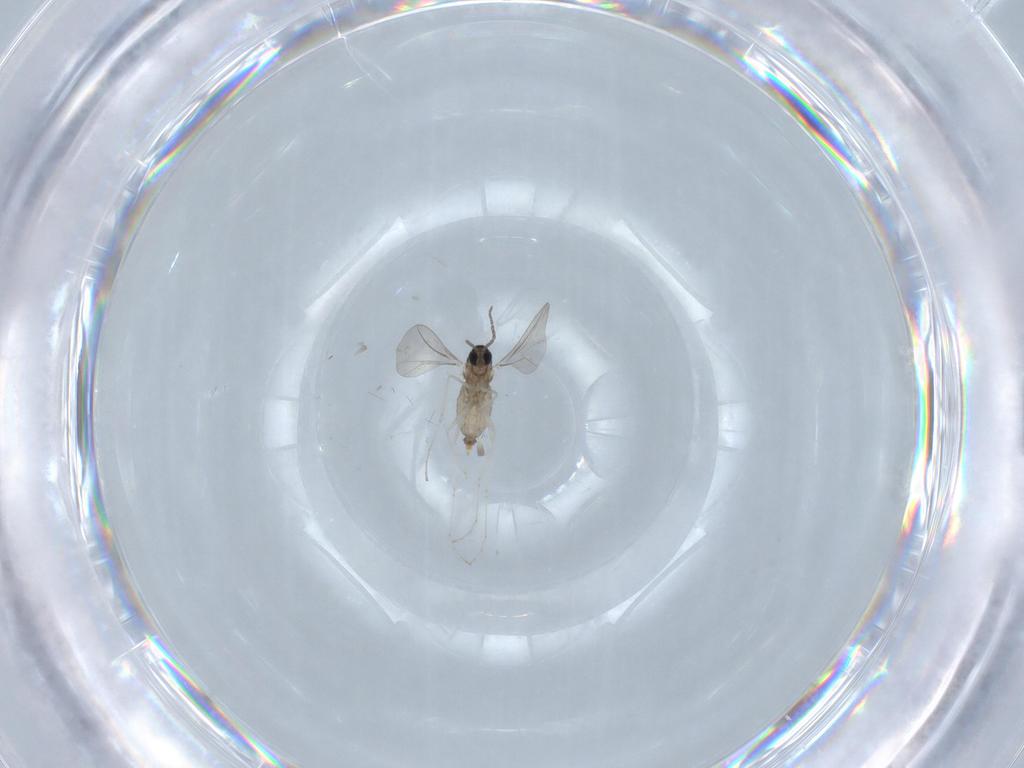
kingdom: Animalia
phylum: Arthropoda
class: Insecta
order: Diptera
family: Cecidomyiidae
